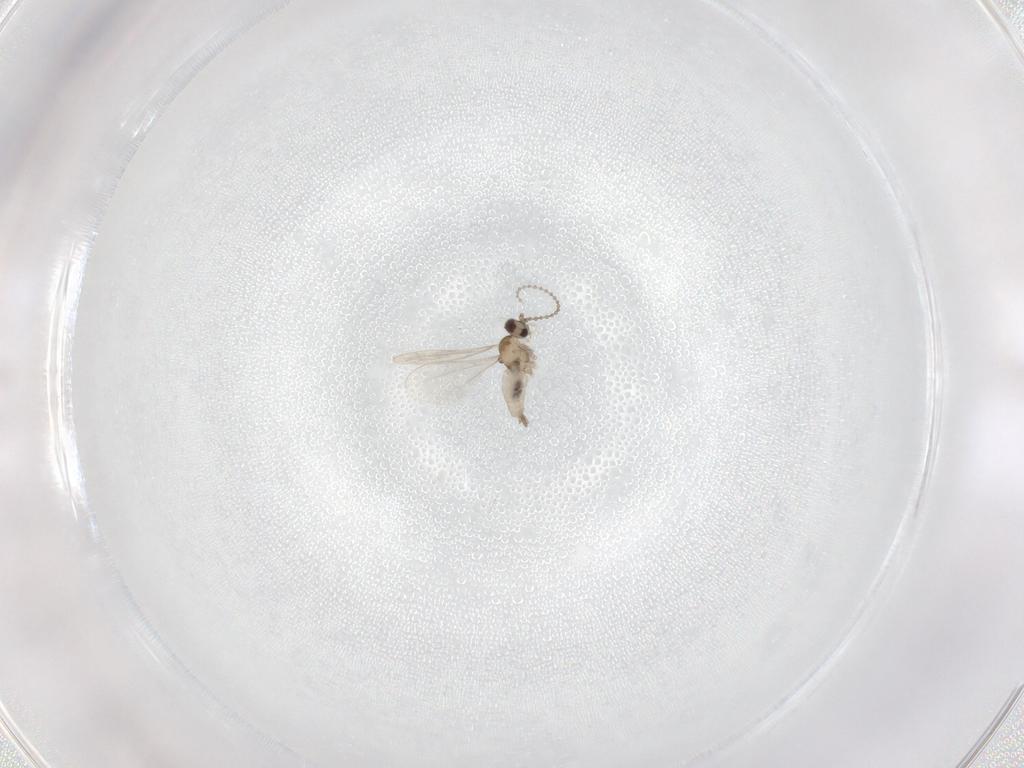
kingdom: Animalia
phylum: Arthropoda
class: Insecta
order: Diptera
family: Cecidomyiidae
